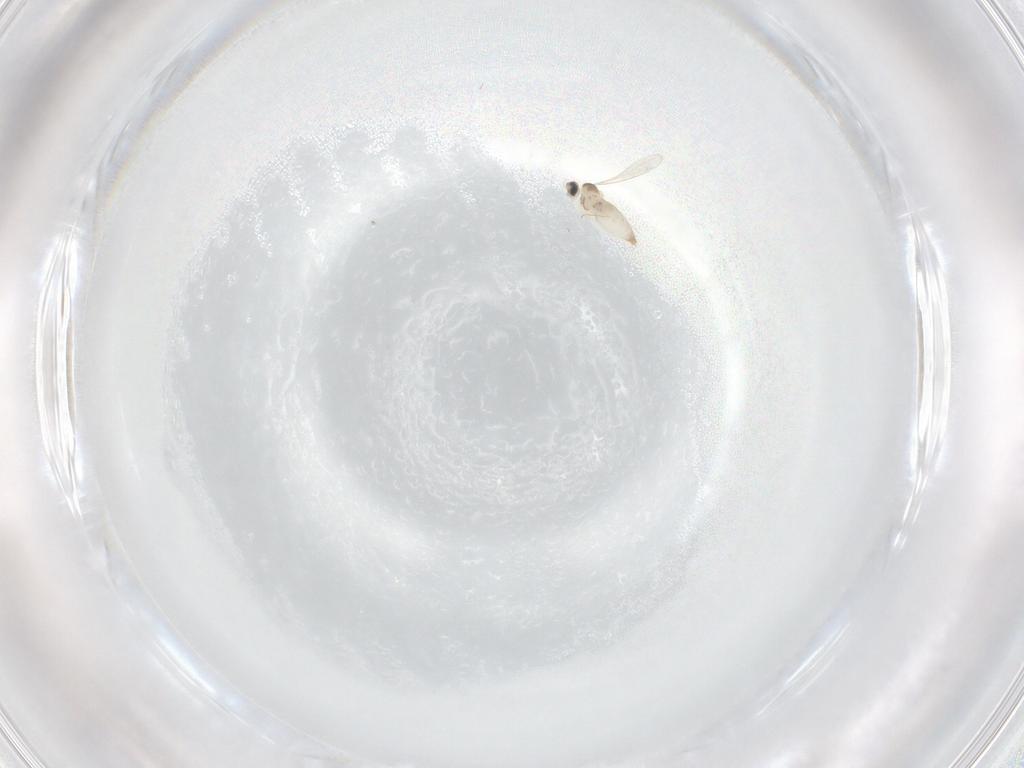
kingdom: Animalia
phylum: Arthropoda
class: Insecta
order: Diptera
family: Cecidomyiidae
